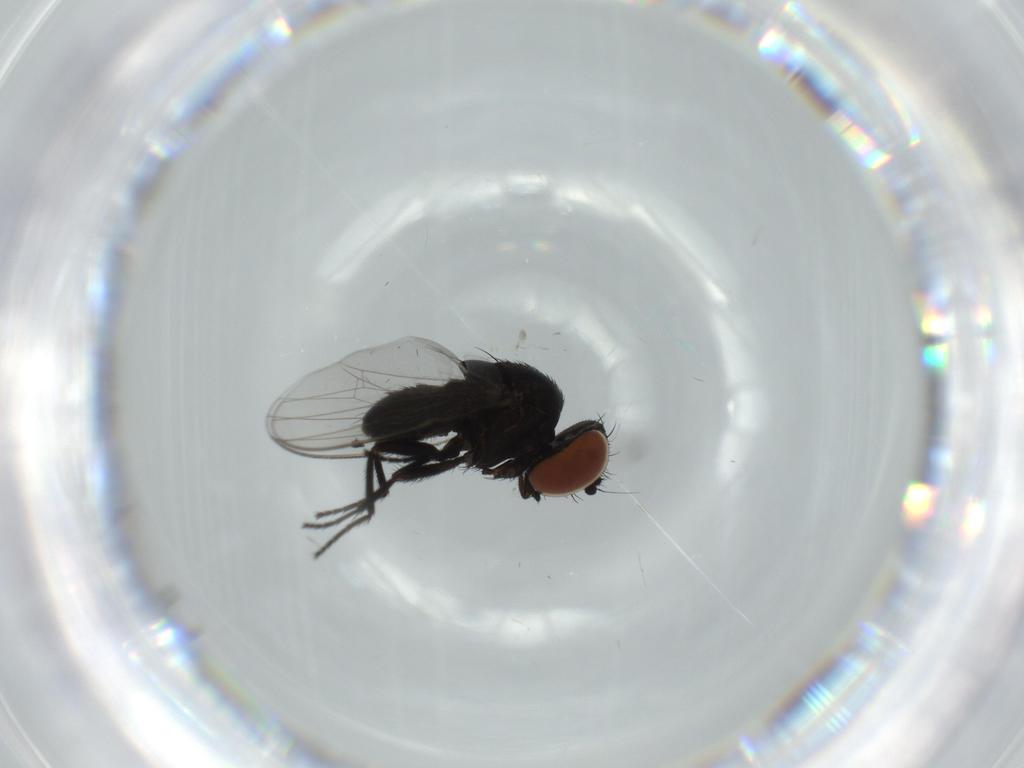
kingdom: Animalia
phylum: Arthropoda
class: Insecta
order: Diptera
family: Milichiidae
